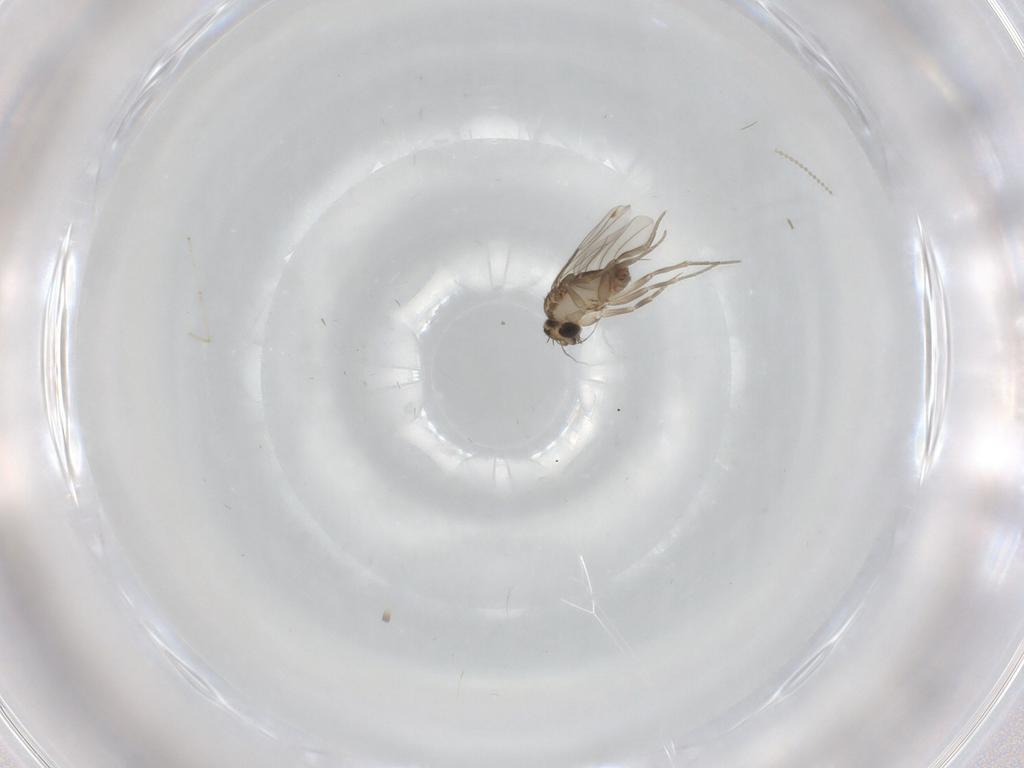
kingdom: Animalia
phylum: Arthropoda
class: Insecta
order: Diptera
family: Phoridae
